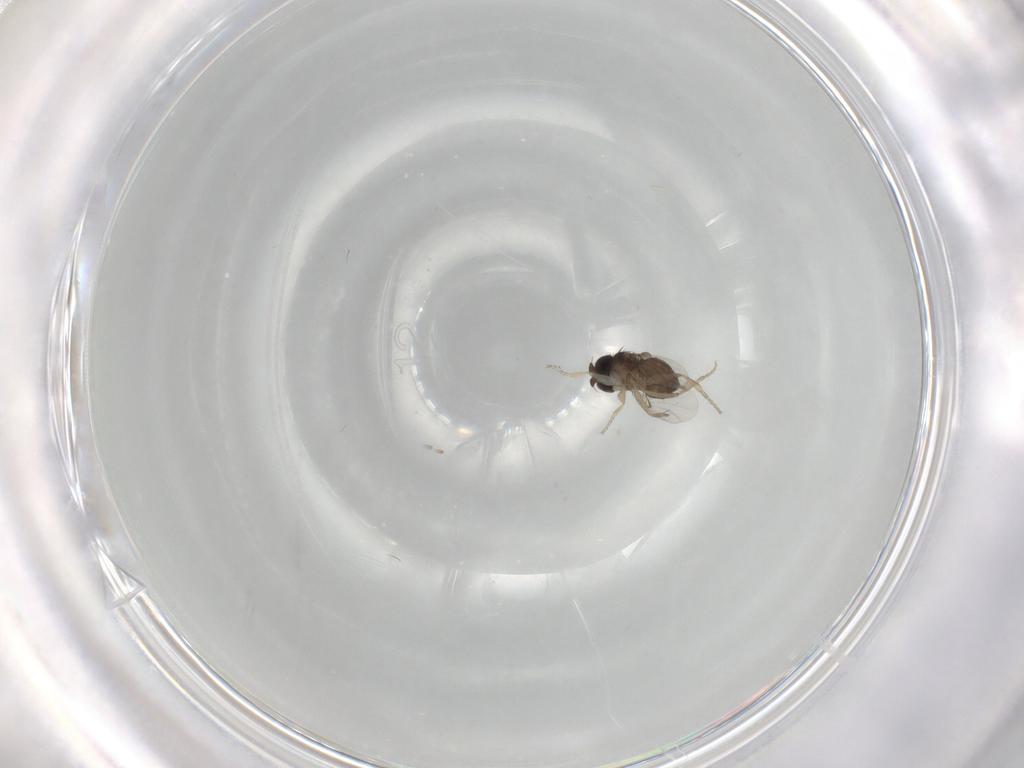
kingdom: Animalia
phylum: Arthropoda
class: Insecta
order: Diptera
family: Phoridae
